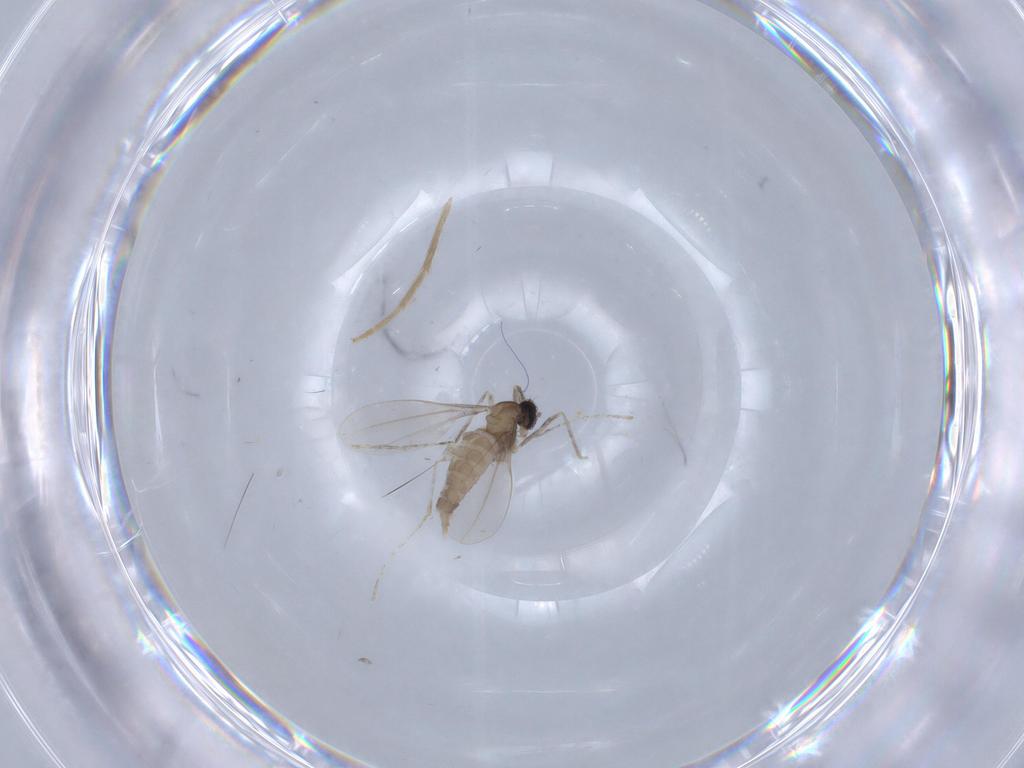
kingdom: Animalia
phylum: Arthropoda
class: Insecta
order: Diptera
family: Cecidomyiidae
